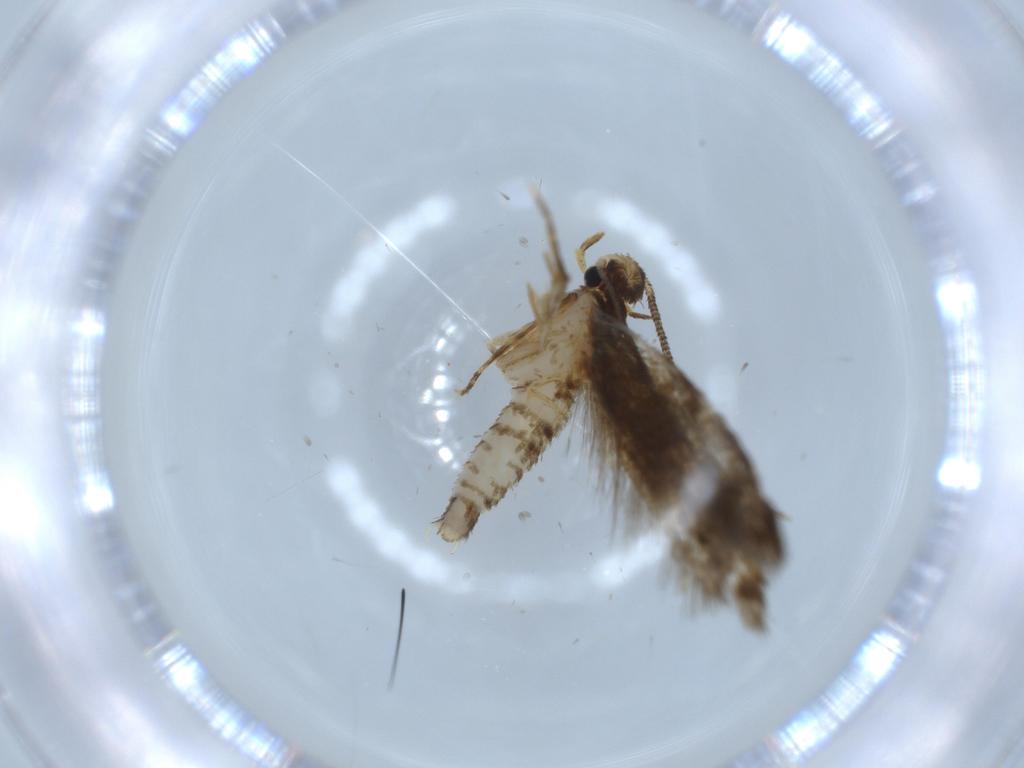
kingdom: Animalia
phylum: Arthropoda
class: Insecta
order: Lepidoptera
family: Tineidae
